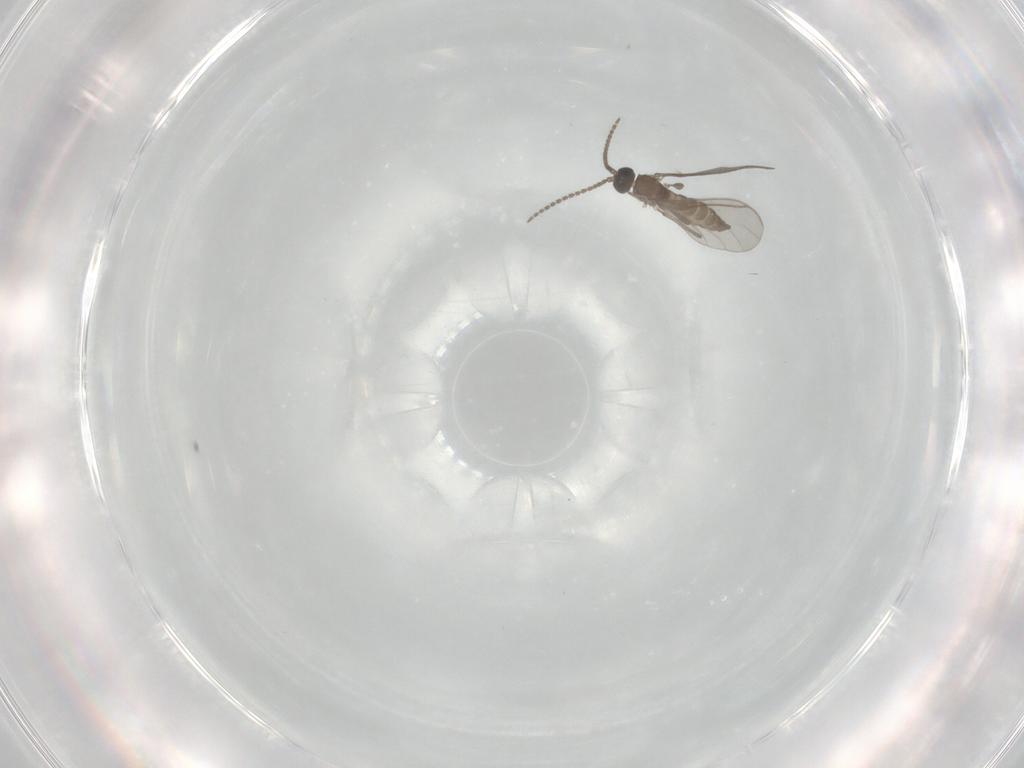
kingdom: Animalia
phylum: Arthropoda
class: Insecta
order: Diptera
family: Sciaridae
